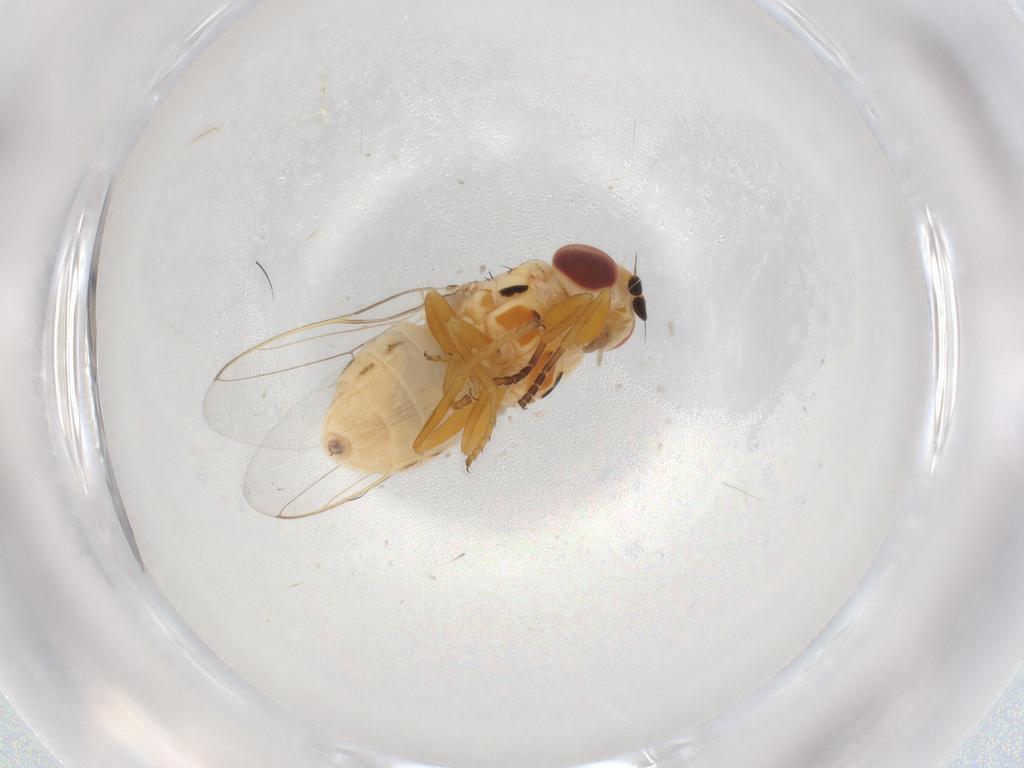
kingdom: Animalia
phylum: Arthropoda
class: Insecta
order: Diptera
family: Chloropidae
